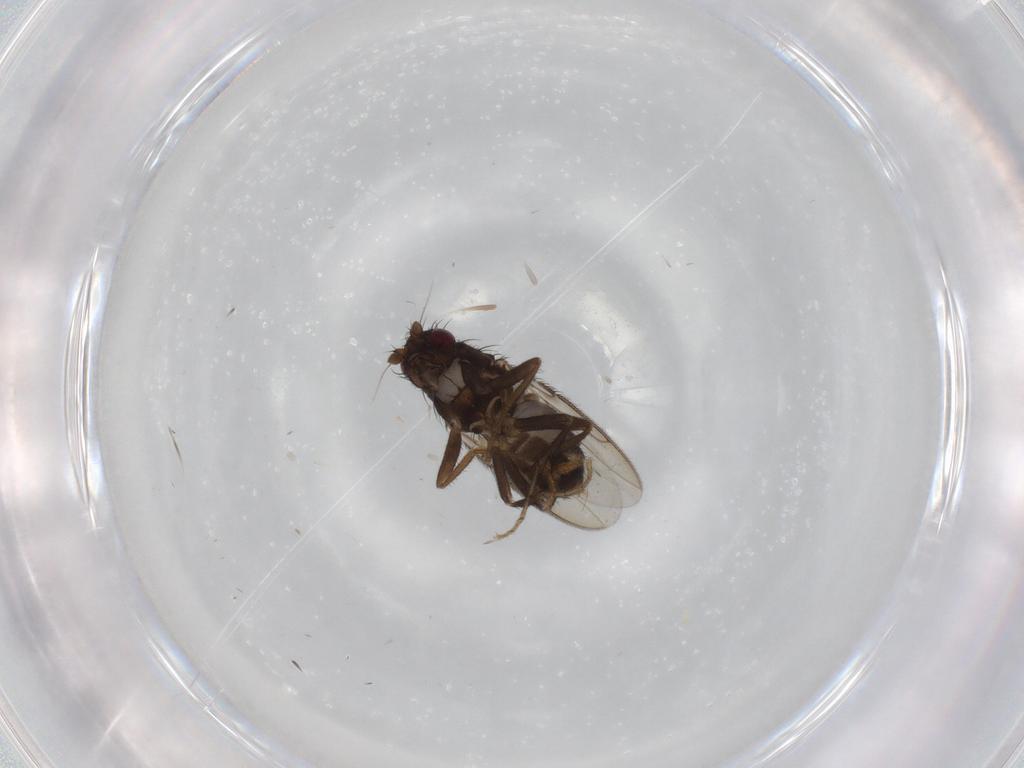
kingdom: Animalia
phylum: Arthropoda
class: Insecta
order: Diptera
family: Sphaeroceridae
